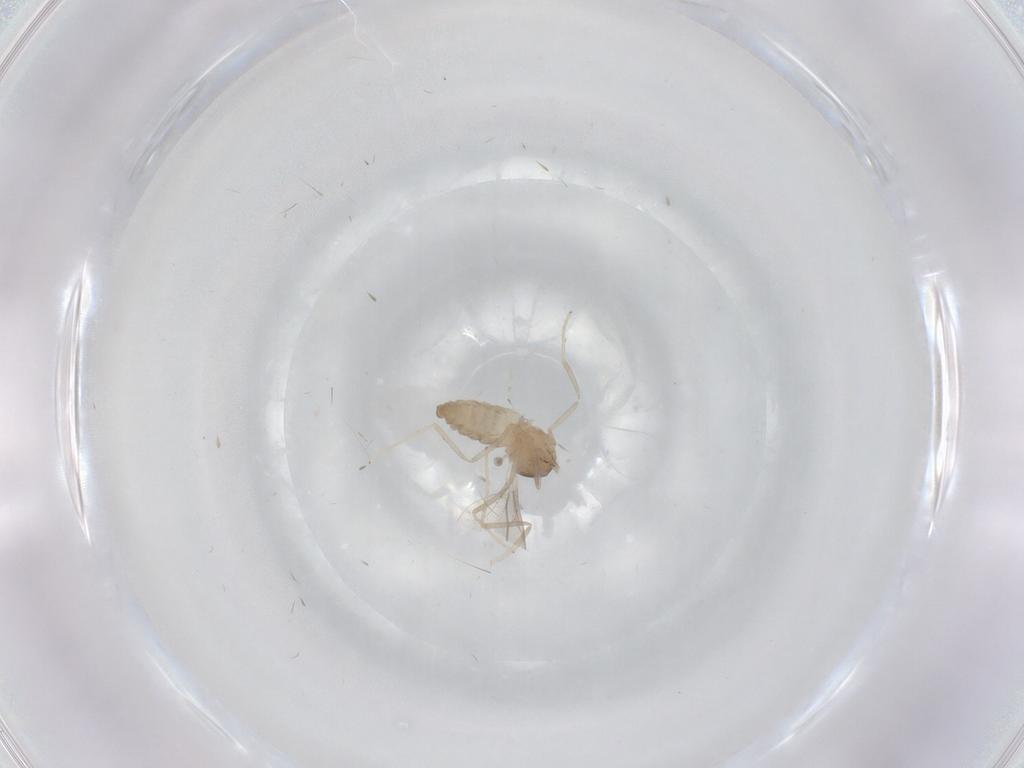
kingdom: Animalia
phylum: Arthropoda
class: Insecta
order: Diptera
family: Cecidomyiidae
